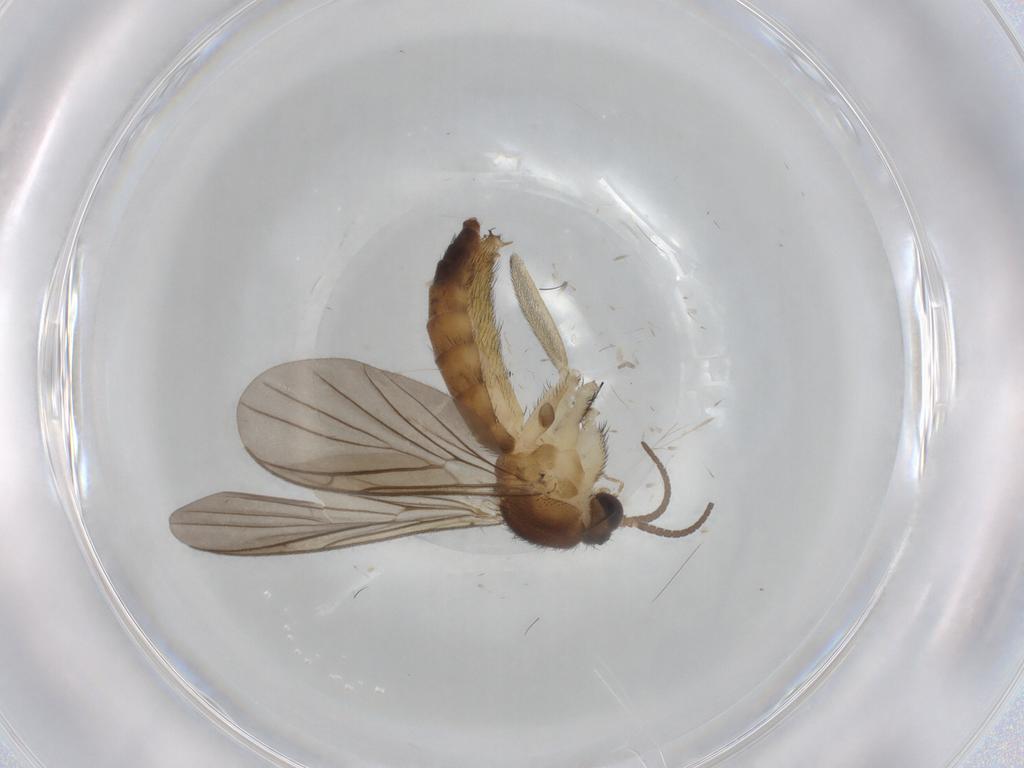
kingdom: Animalia
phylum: Arthropoda
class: Insecta
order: Diptera
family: Keroplatidae
